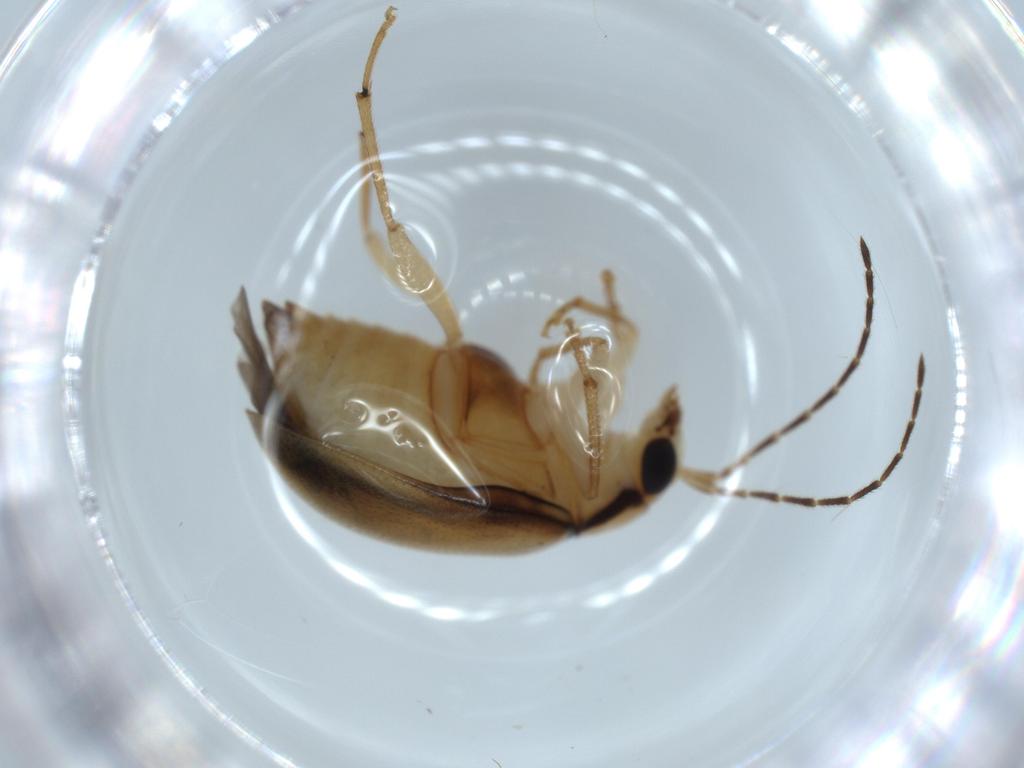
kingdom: Animalia
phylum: Arthropoda
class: Insecta
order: Coleoptera
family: Chrysomelidae
